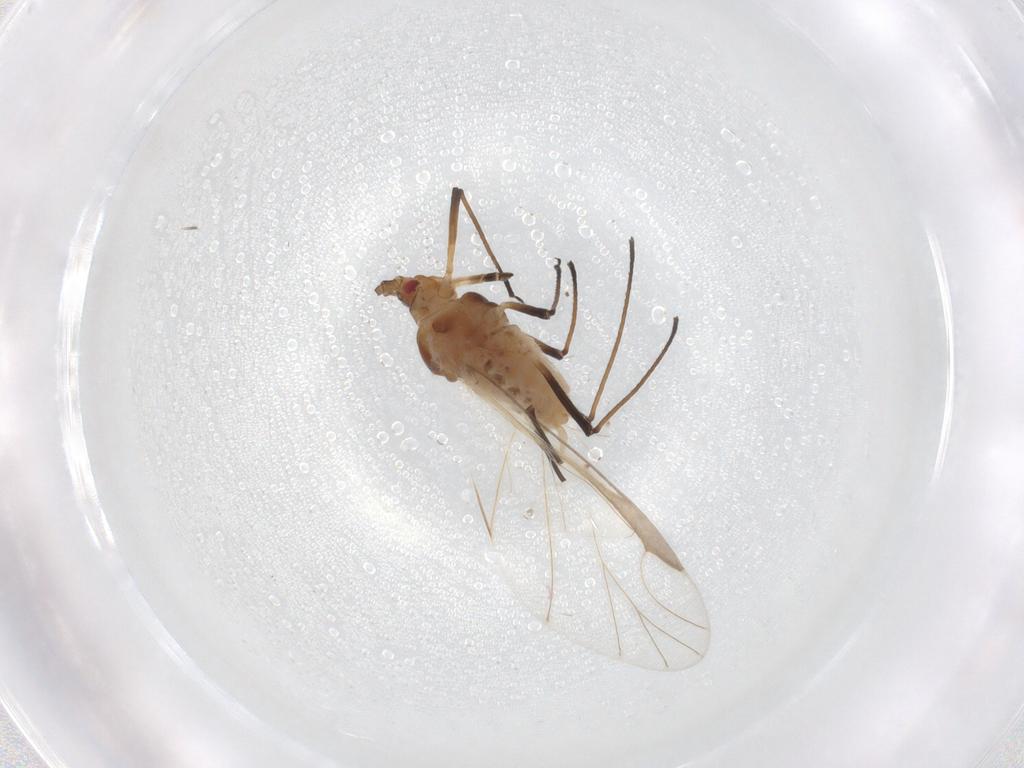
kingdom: Animalia
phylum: Arthropoda
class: Insecta
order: Hemiptera
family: Aphididae
